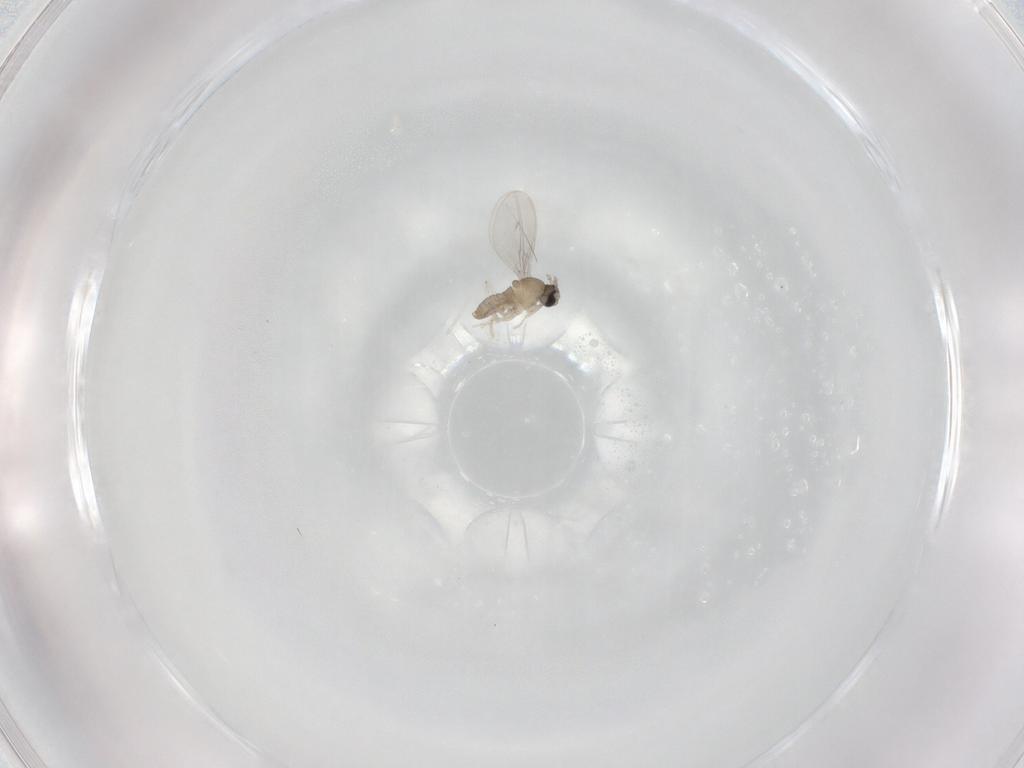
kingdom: Animalia
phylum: Arthropoda
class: Insecta
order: Diptera
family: Cecidomyiidae
